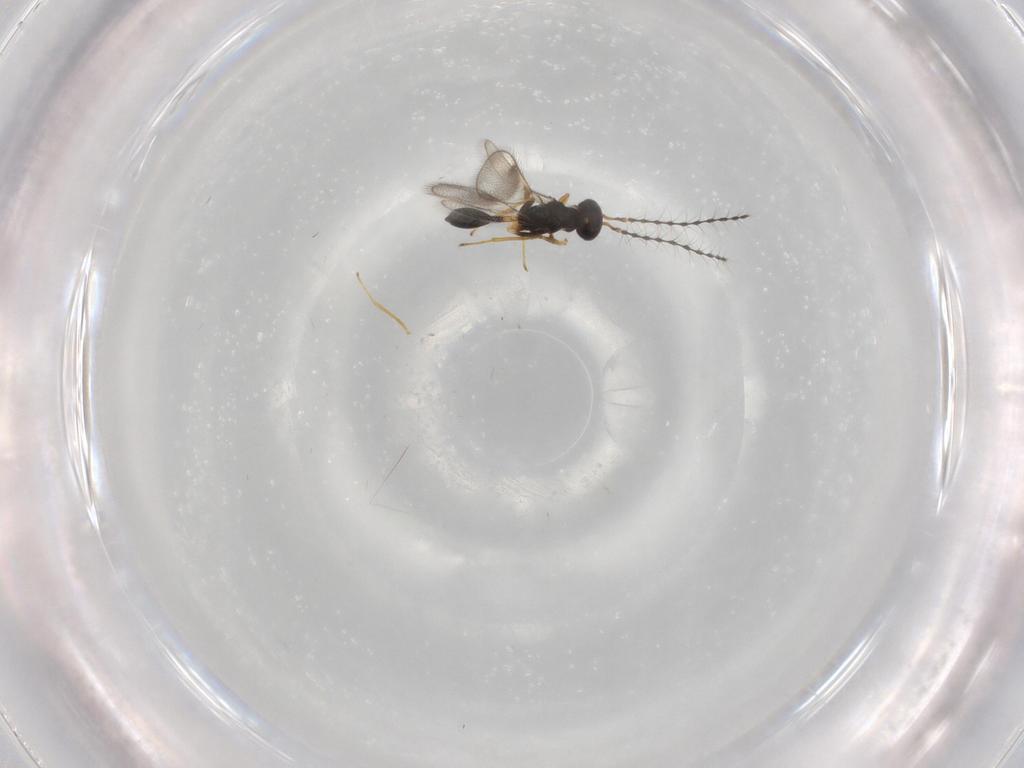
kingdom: Animalia
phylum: Arthropoda
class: Insecta
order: Hymenoptera
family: Diparidae
